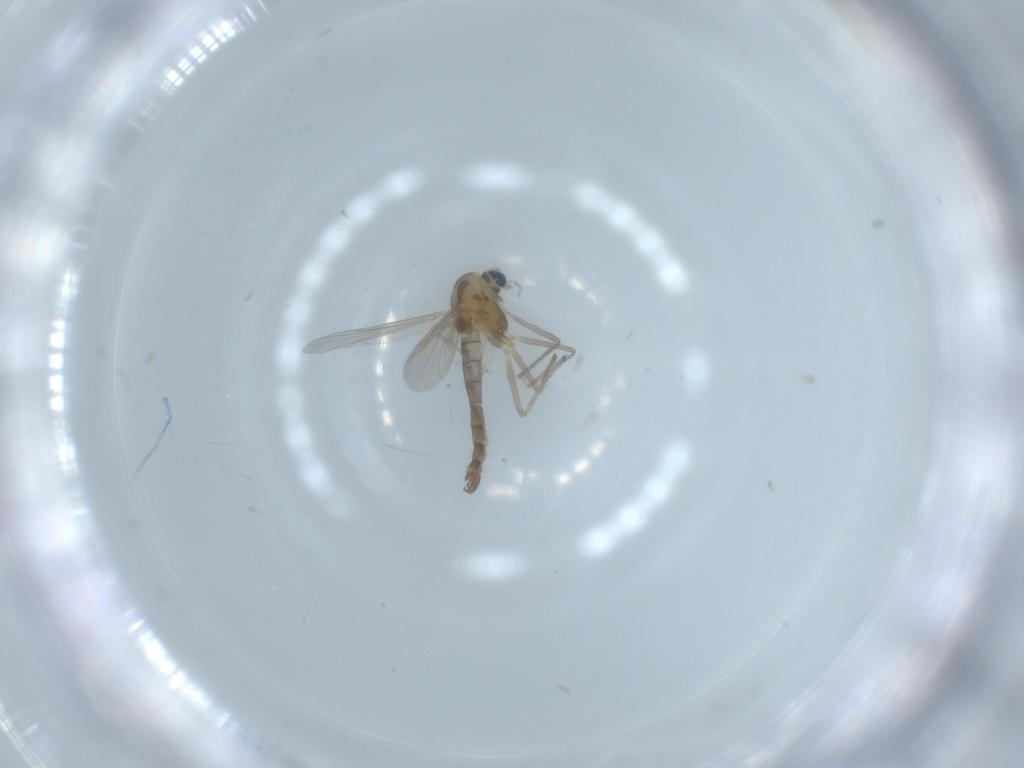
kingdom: Animalia
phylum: Arthropoda
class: Insecta
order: Diptera
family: Chironomidae
